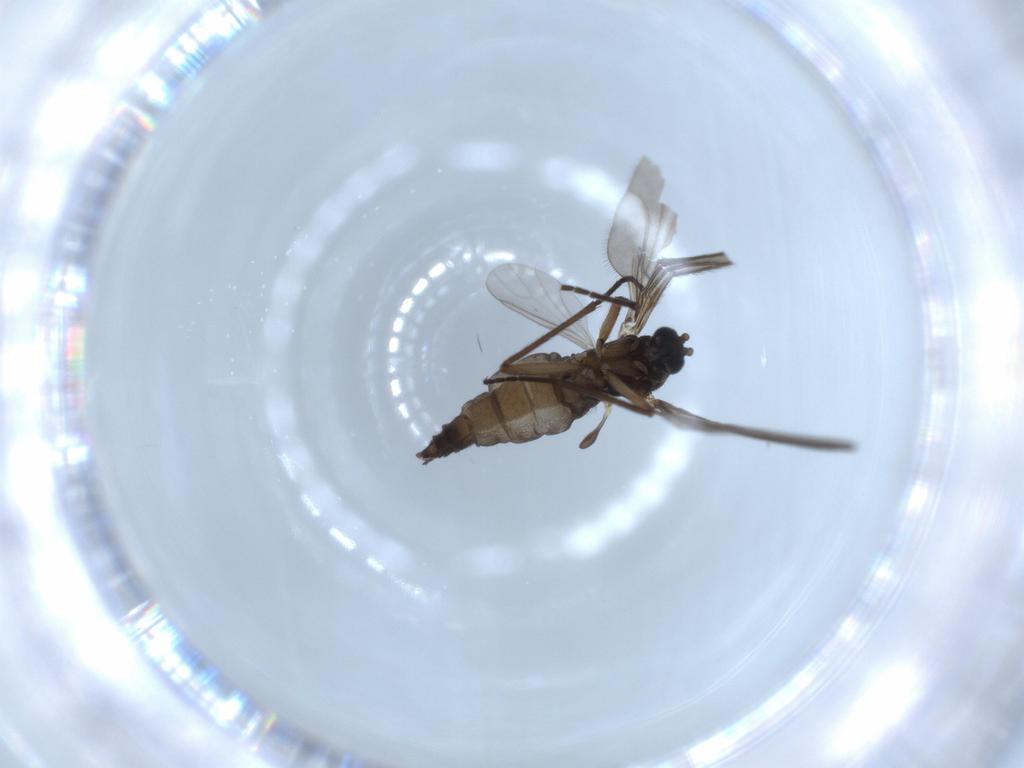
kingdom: Animalia
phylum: Arthropoda
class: Insecta
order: Diptera
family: Sciaridae
